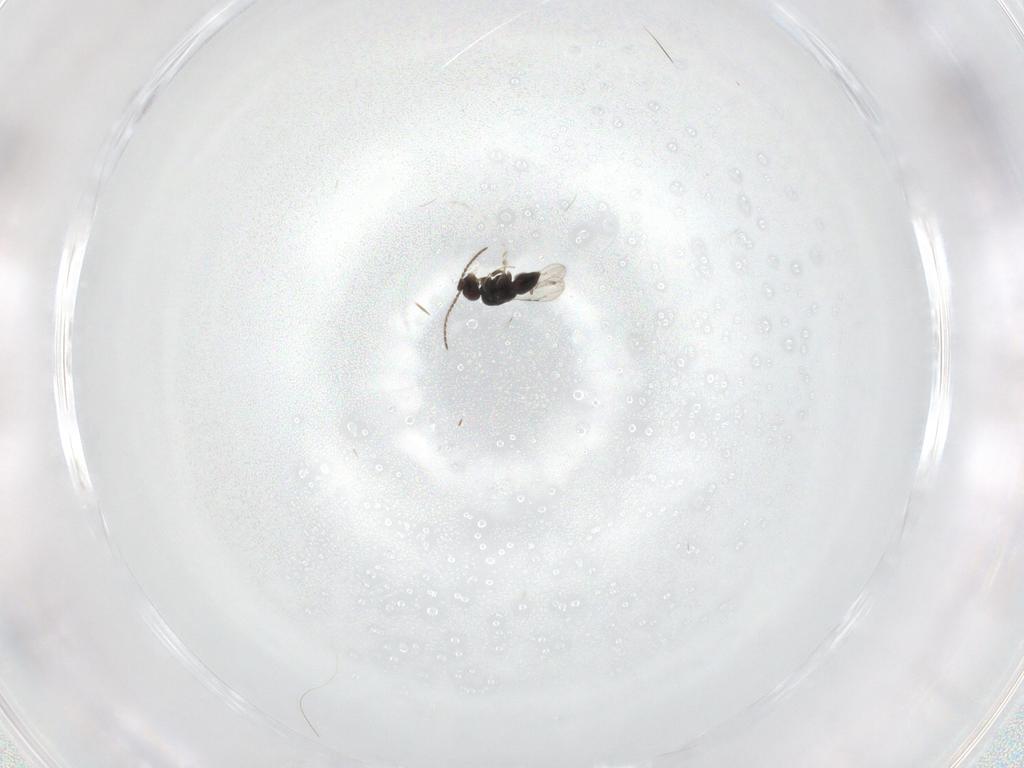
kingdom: Animalia
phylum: Arthropoda
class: Insecta
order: Hymenoptera
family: Ceraphronidae
